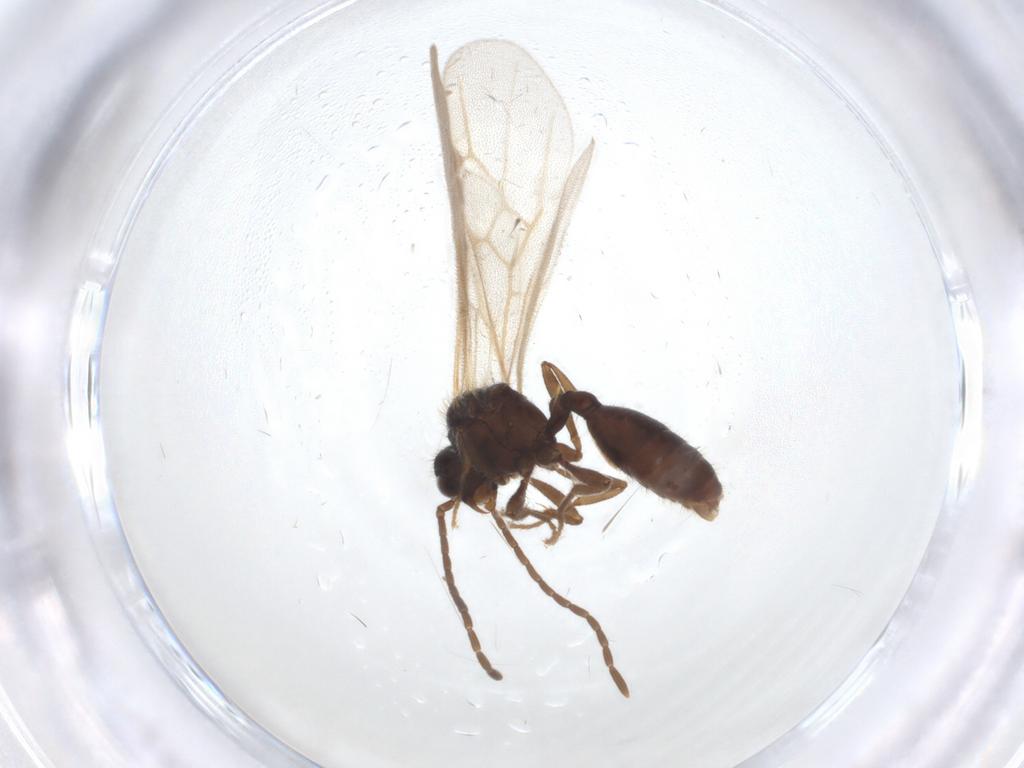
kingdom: Animalia
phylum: Arthropoda
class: Insecta
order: Hymenoptera
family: Formicidae
